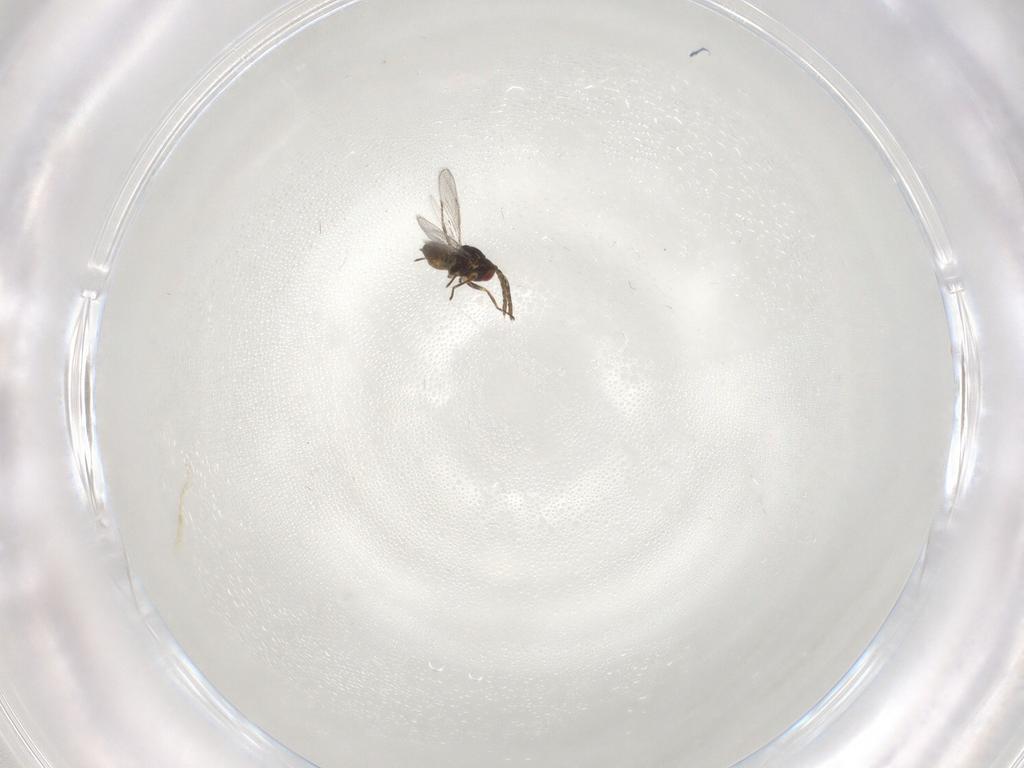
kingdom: Animalia
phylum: Arthropoda
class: Insecta
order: Hymenoptera
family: Eulophidae
